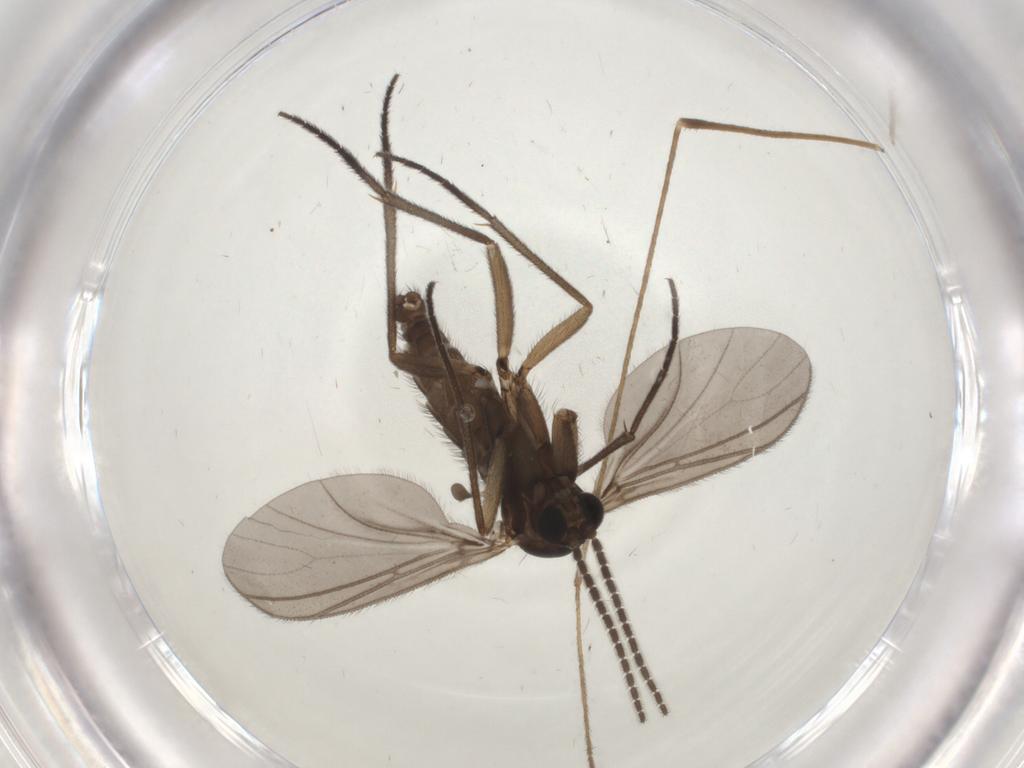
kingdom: Animalia
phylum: Arthropoda
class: Insecta
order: Diptera
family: Sciaridae
